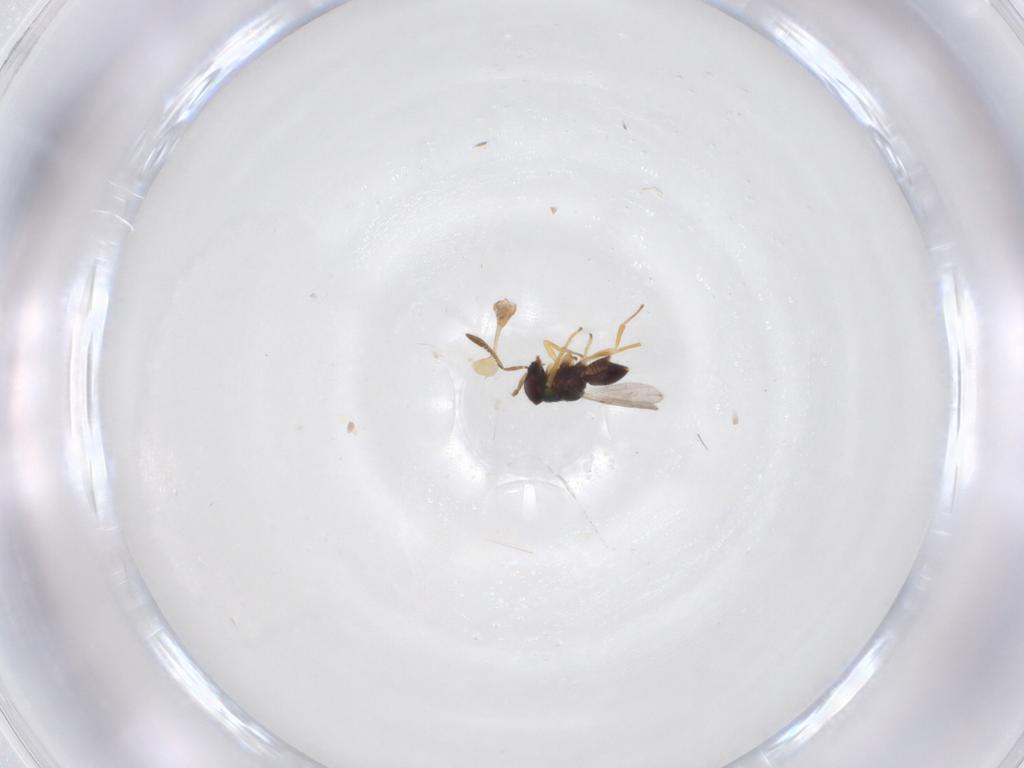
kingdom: Animalia
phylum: Arthropoda
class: Insecta
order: Hymenoptera
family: Encyrtidae
